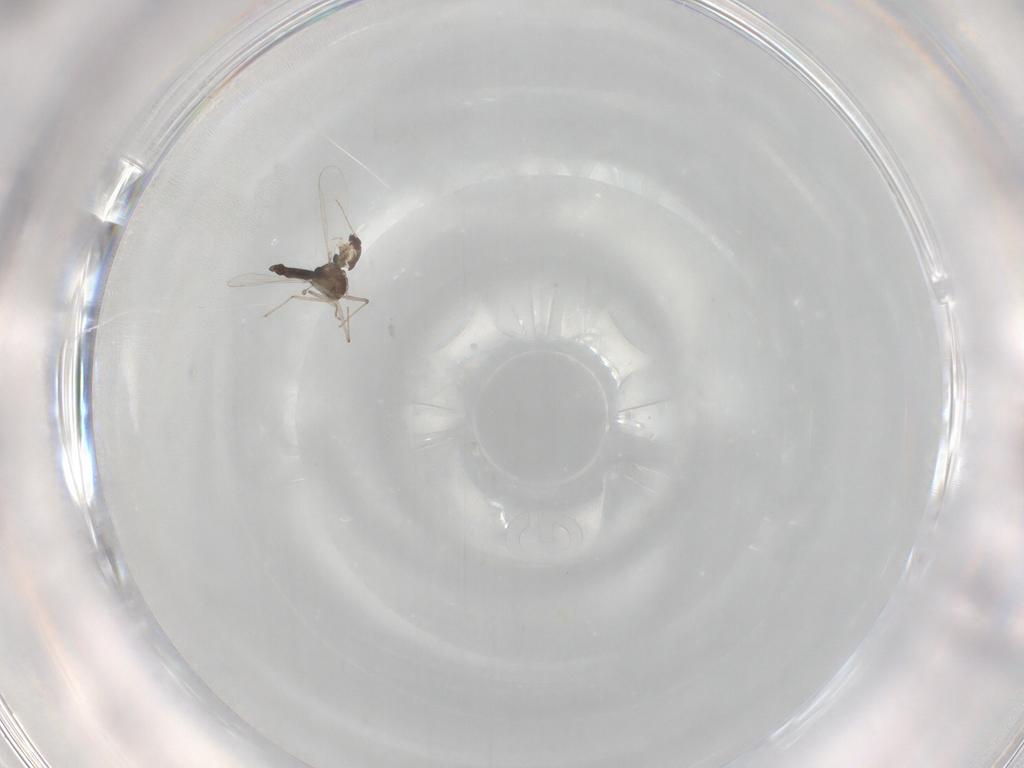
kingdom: Animalia
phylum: Arthropoda
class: Insecta
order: Diptera
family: Chironomidae
